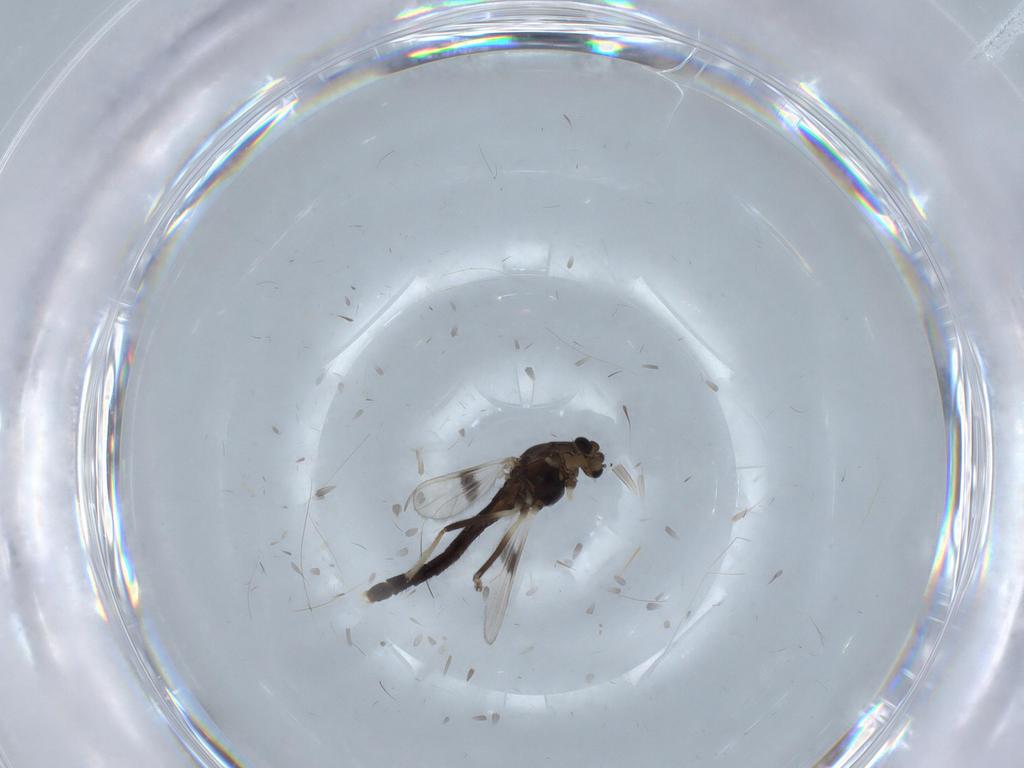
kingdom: Animalia
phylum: Arthropoda
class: Insecta
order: Diptera
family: Chironomidae
